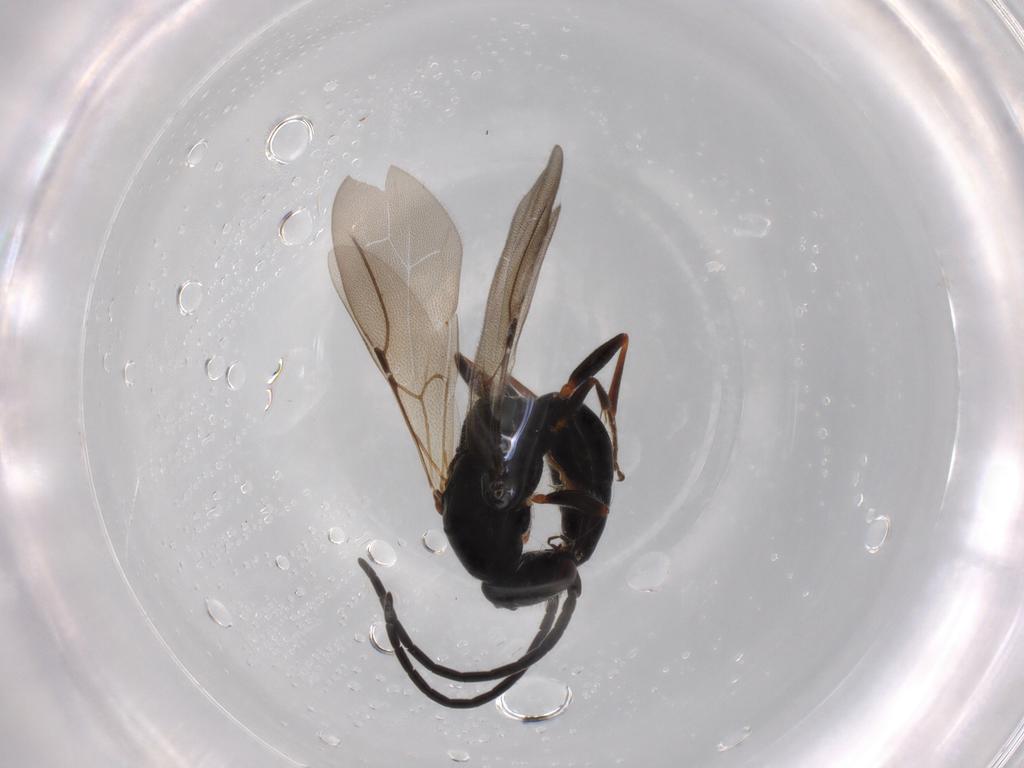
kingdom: Animalia
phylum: Arthropoda
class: Insecta
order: Hymenoptera
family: Bethylidae
